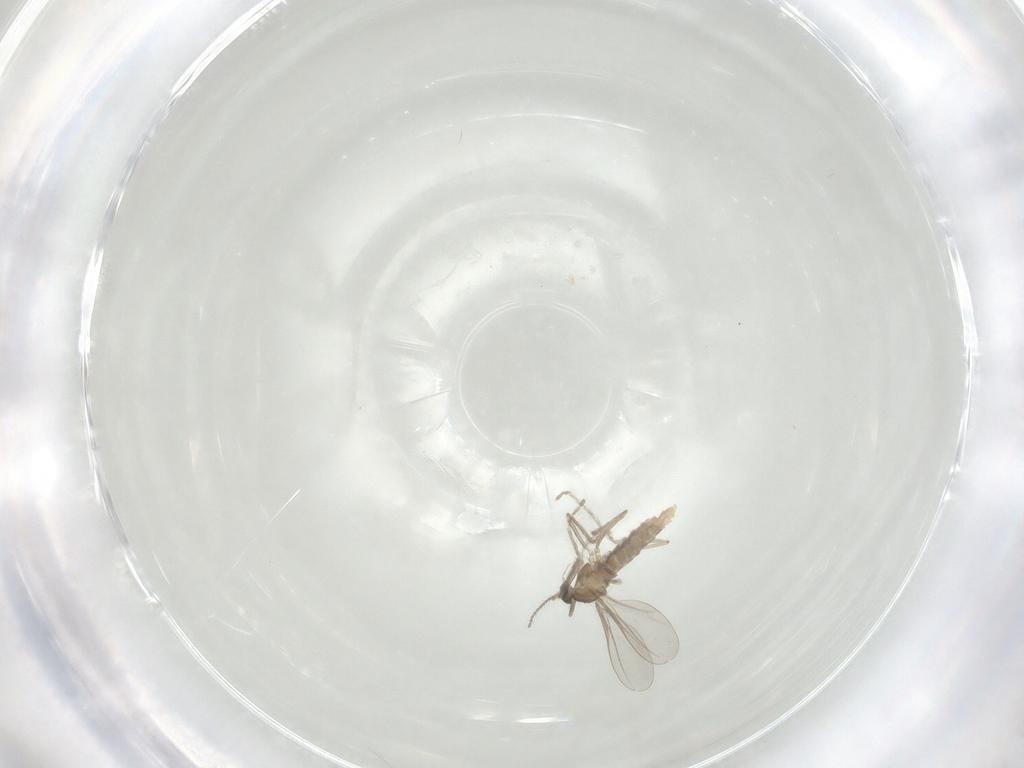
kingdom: Animalia
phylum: Arthropoda
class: Insecta
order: Diptera
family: Cecidomyiidae
